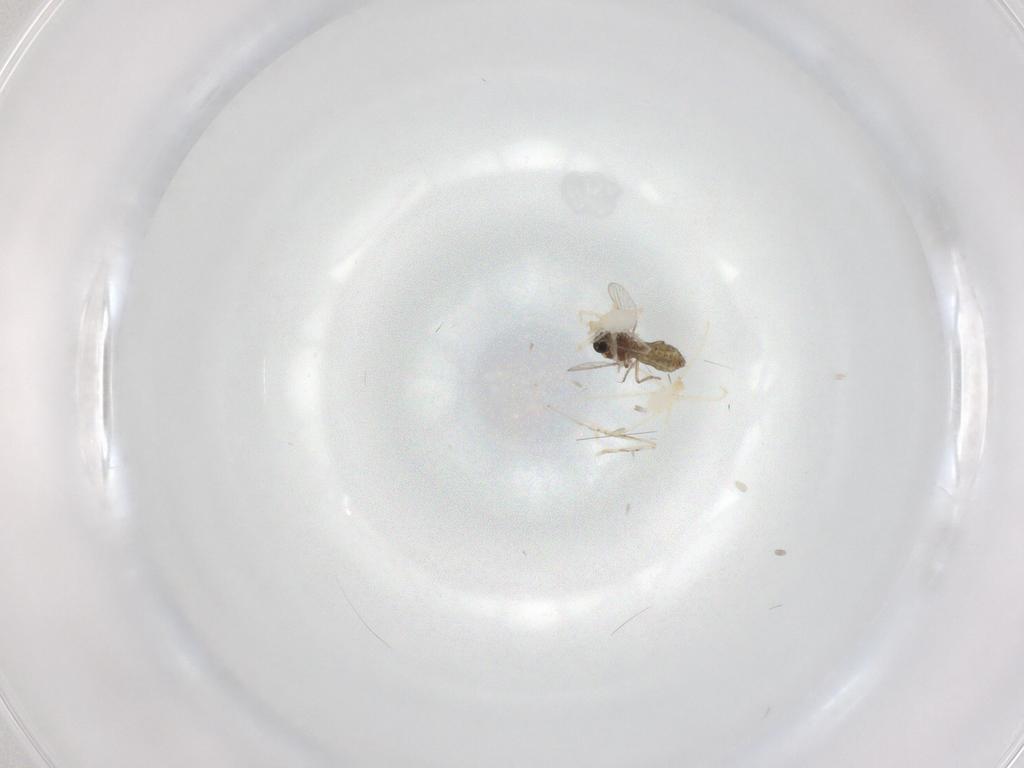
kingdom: Animalia
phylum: Arthropoda
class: Insecta
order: Diptera
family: Ceratopogonidae
